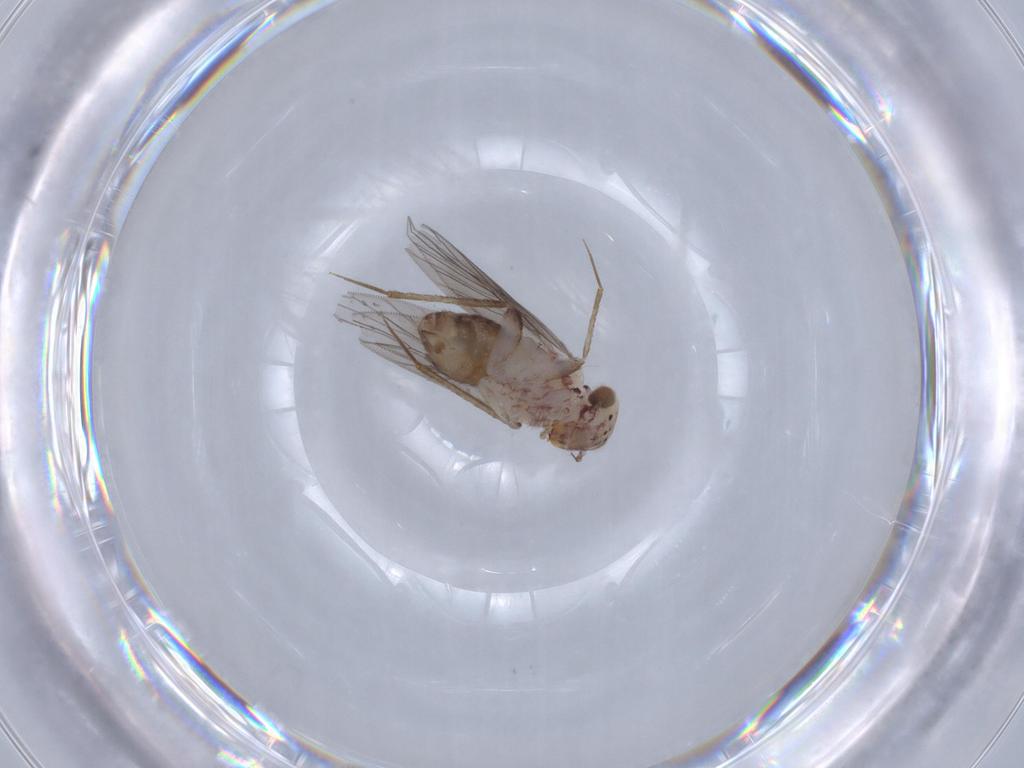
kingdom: Animalia
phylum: Arthropoda
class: Insecta
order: Psocodea
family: Lepidopsocidae
